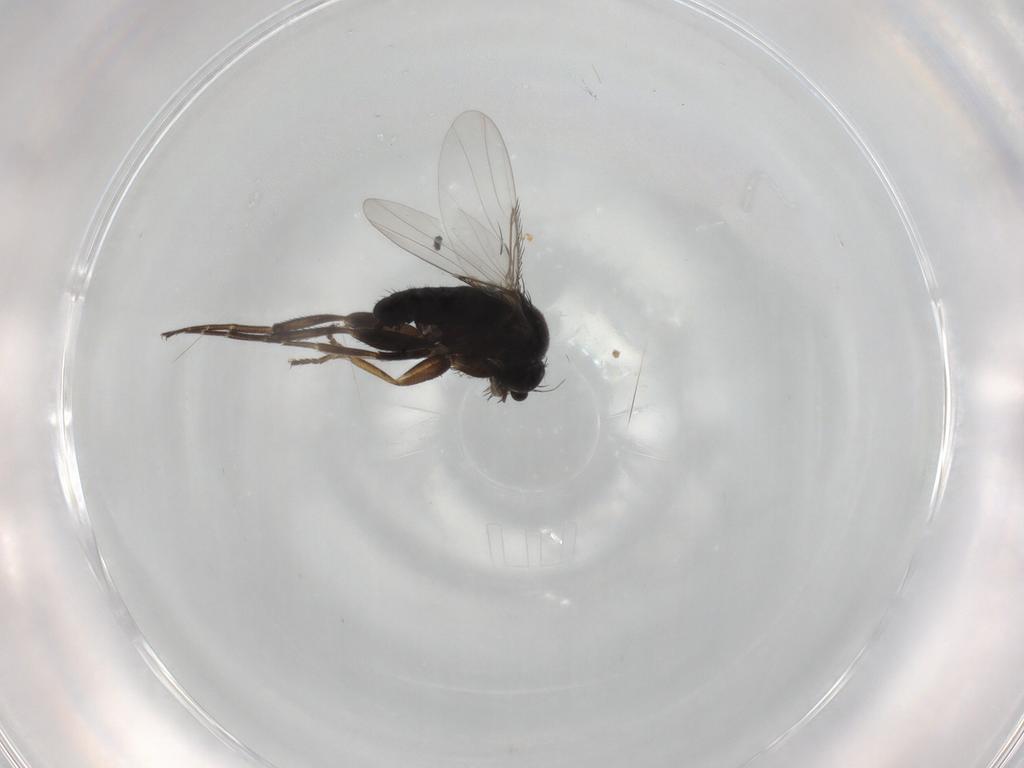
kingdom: Animalia
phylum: Arthropoda
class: Insecta
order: Diptera
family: Phoridae
